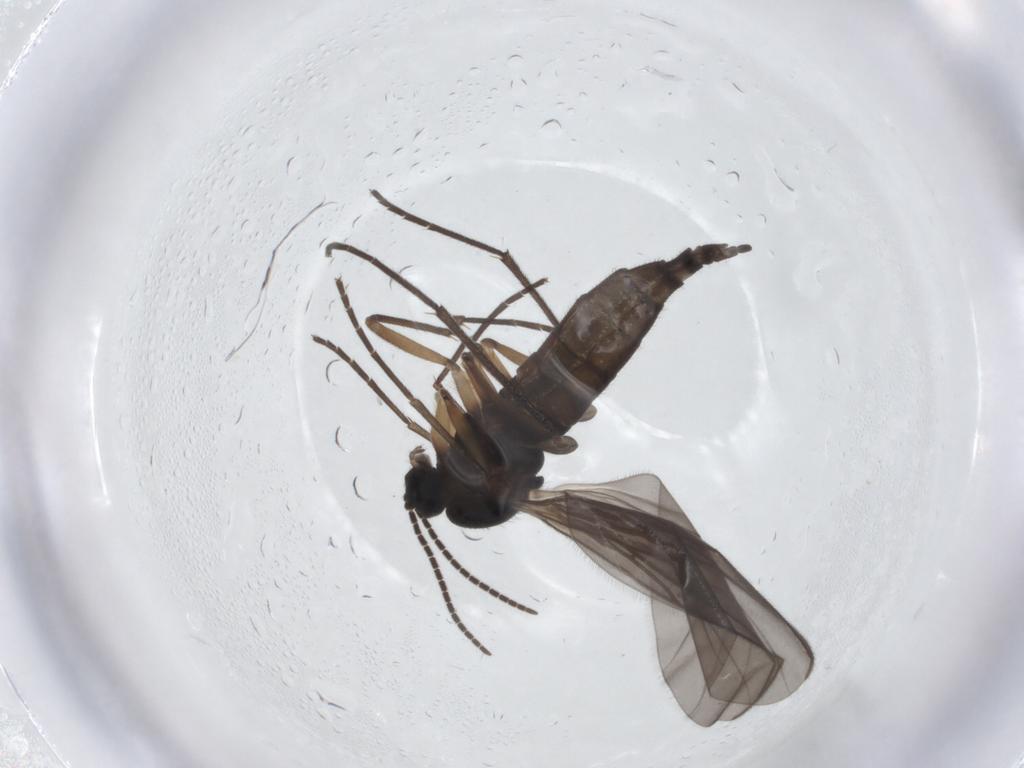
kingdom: Animalia
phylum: Arthropoda
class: Insecta
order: Diptera
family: Sciaridae
